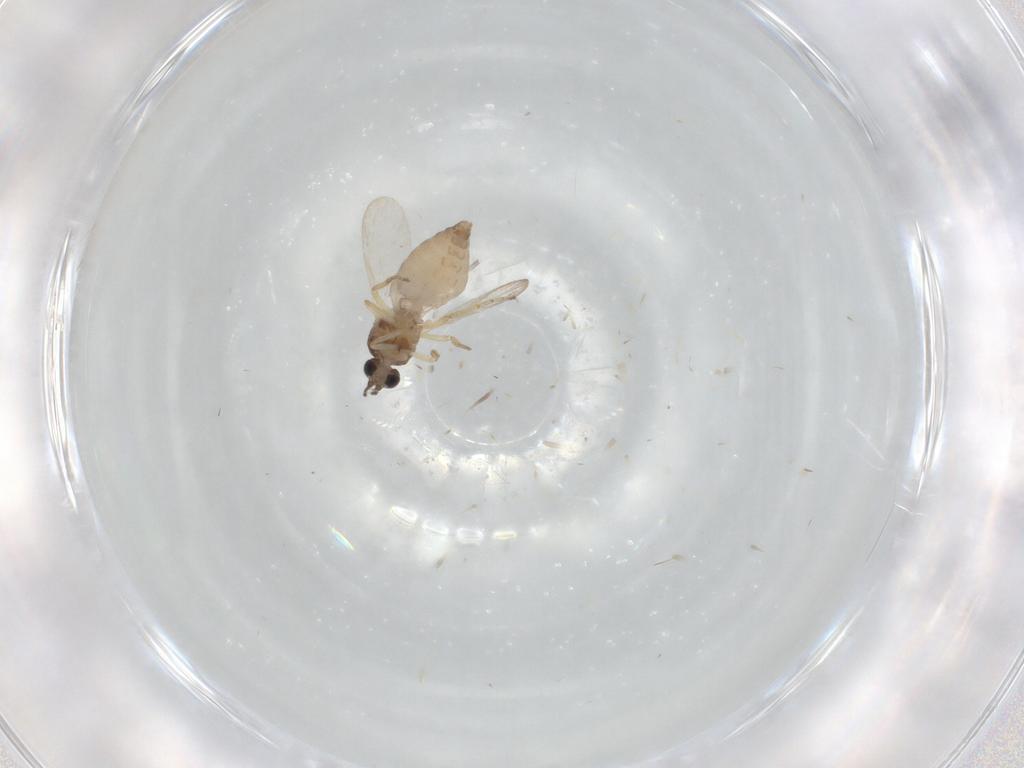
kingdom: Animalia
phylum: Arthropoda
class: Insecta
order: Diptera
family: Ceratopogonidae
